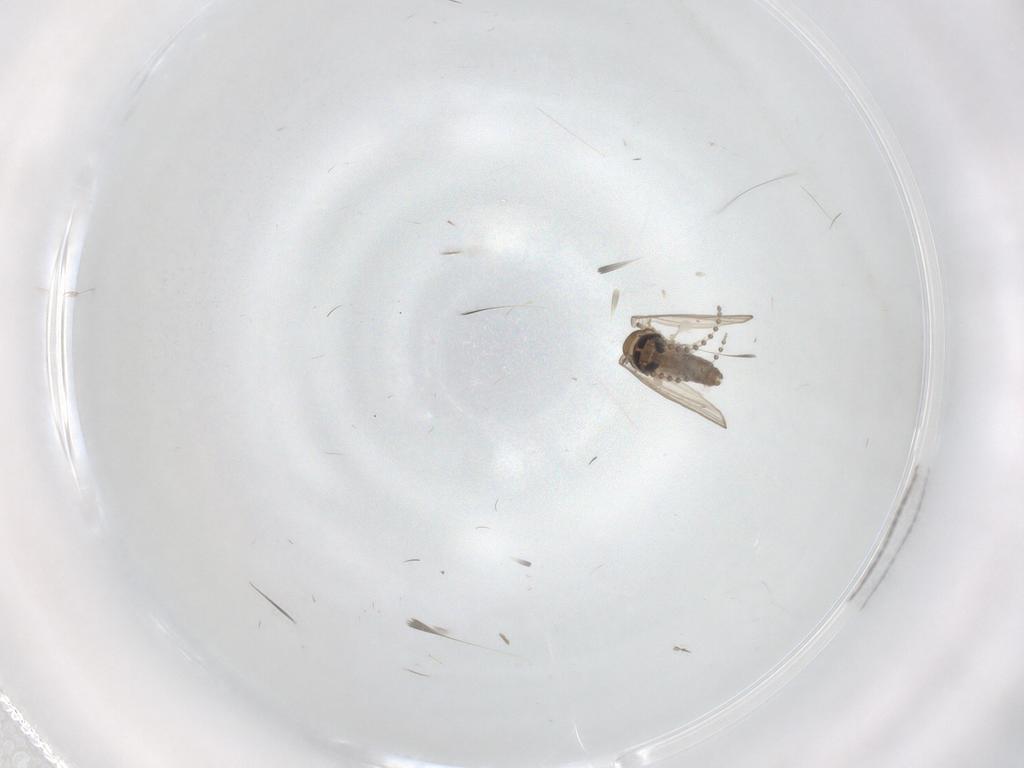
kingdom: Animalia
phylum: Arthropoda
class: Insecta
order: Diptera
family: Psychodidae
